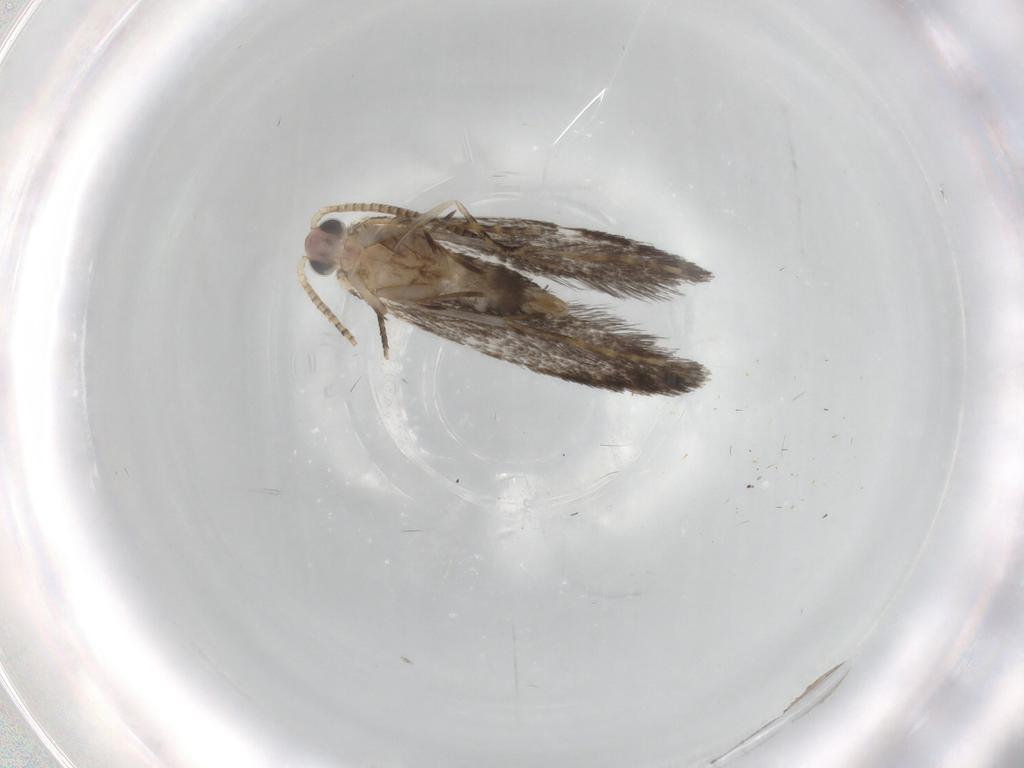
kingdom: Animalia
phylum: Arthropoda
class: Insecta
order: Lepidoptera
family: Tineidae
